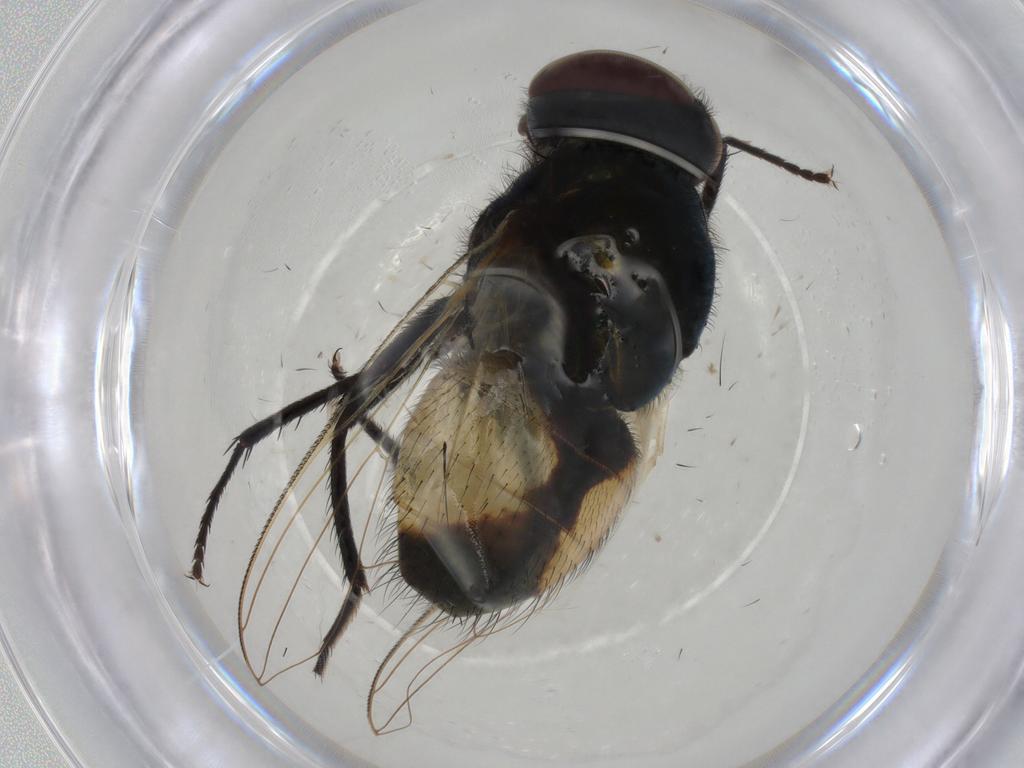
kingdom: Animalia
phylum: Arthropoda
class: Insecta
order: Diptera
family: Muscidae
